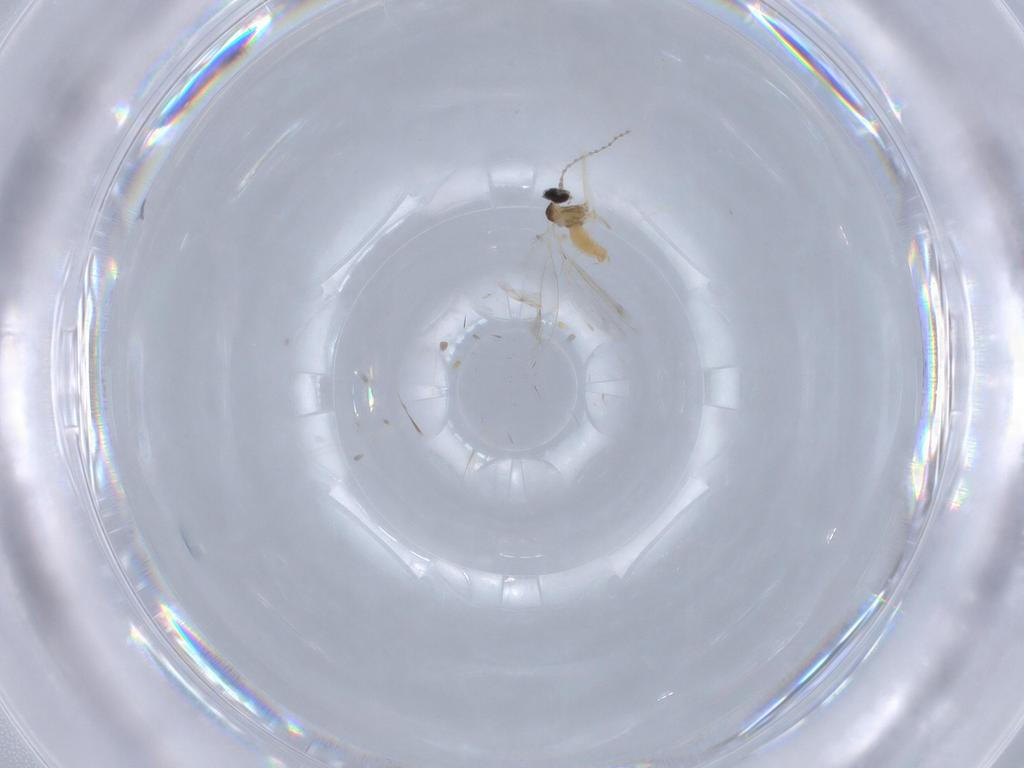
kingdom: Animalia
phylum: Arthropoda
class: Insecta
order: Diptera
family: Cecidomyiidae
